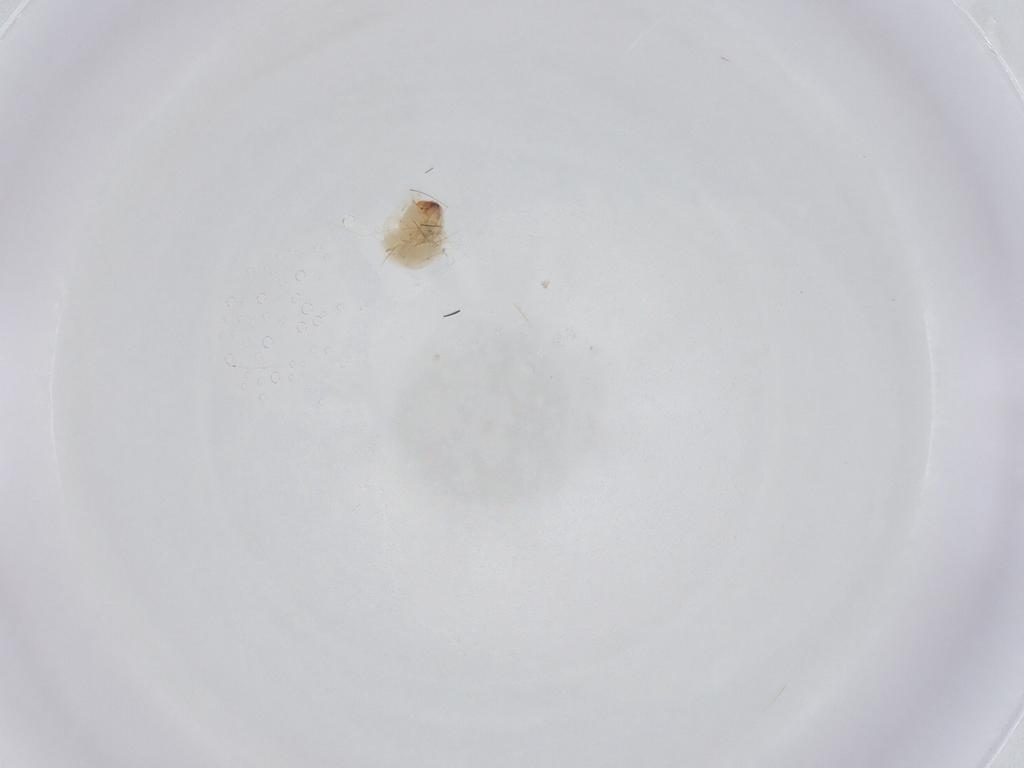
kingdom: Animalia
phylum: Arthropoda
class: Insecta
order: Coleoptera
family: Bostrichidae
